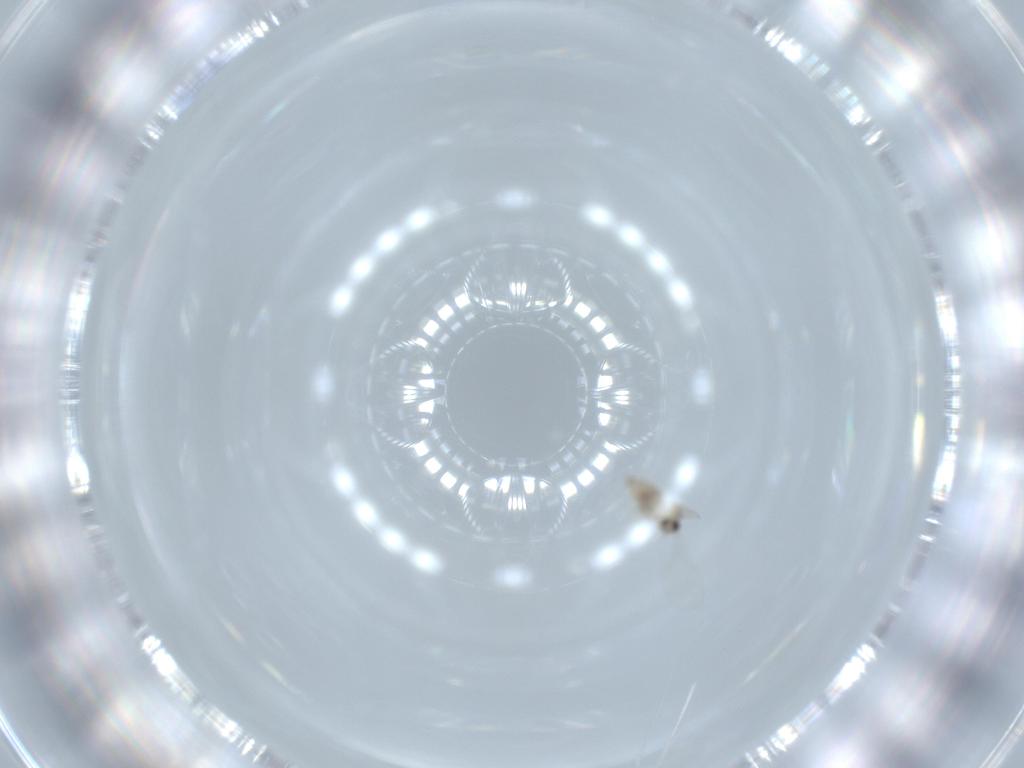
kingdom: Animalia
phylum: Arthropoda
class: Insecta
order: Diptera
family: Cecidomyiidae
